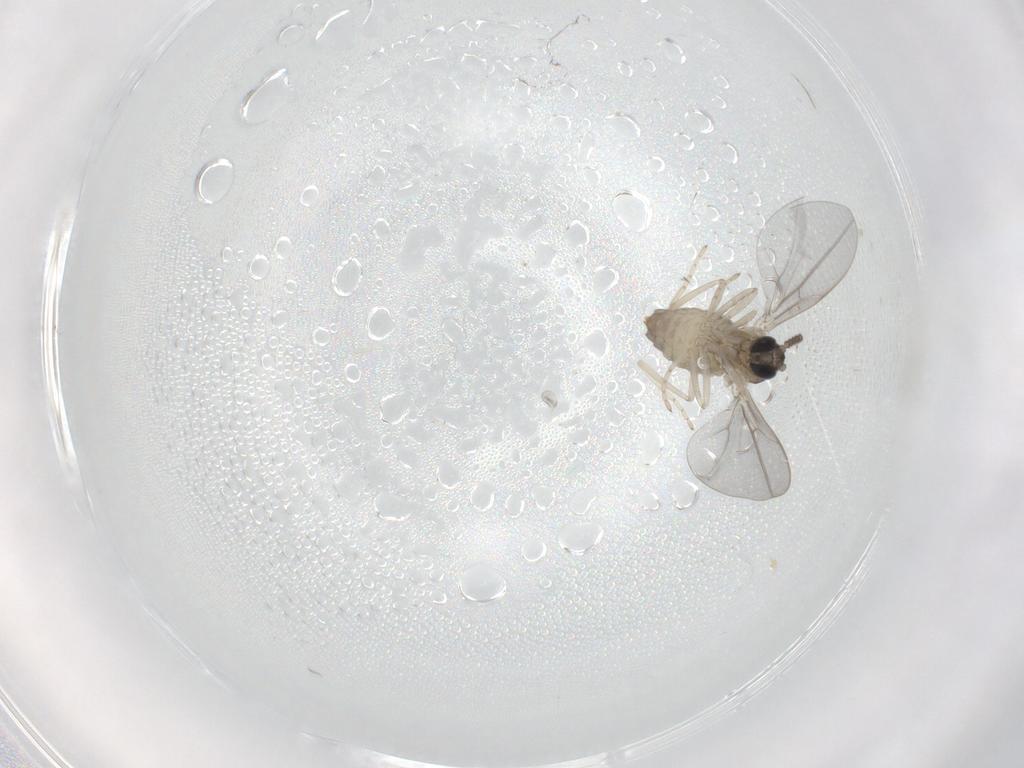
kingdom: Animalia
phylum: Arthropoda
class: Insecta
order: Diptera
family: Cecidomyiidae
